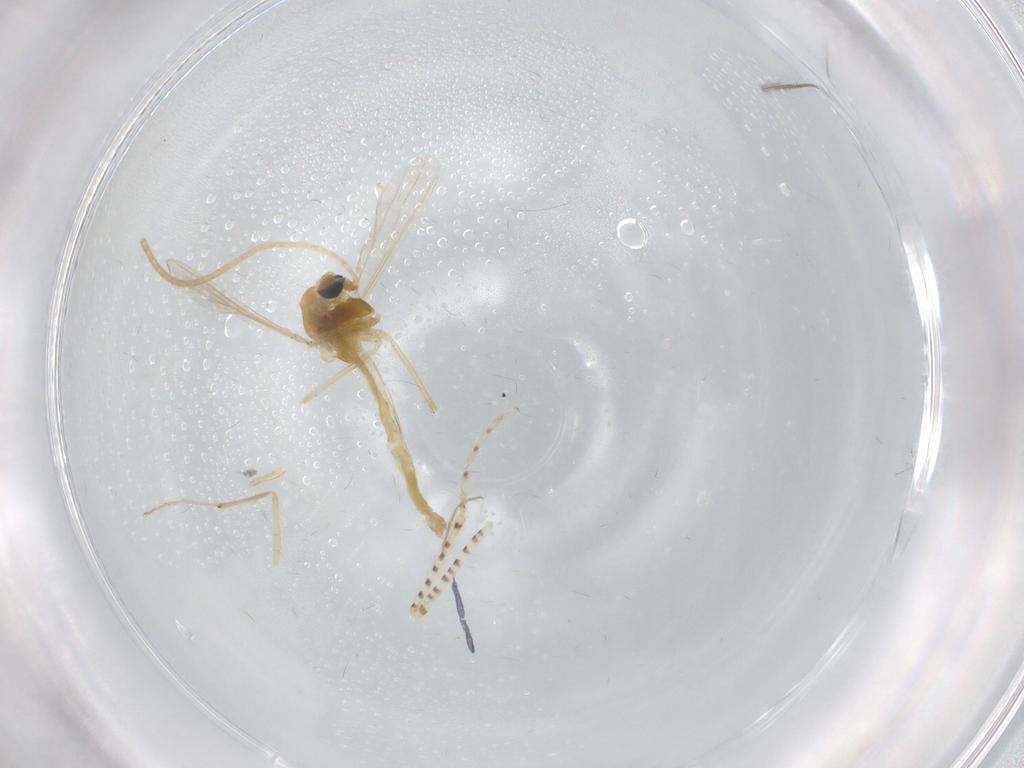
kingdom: Animalia
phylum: Arthropoda
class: Insecta
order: Diptera
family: Chironomidae
